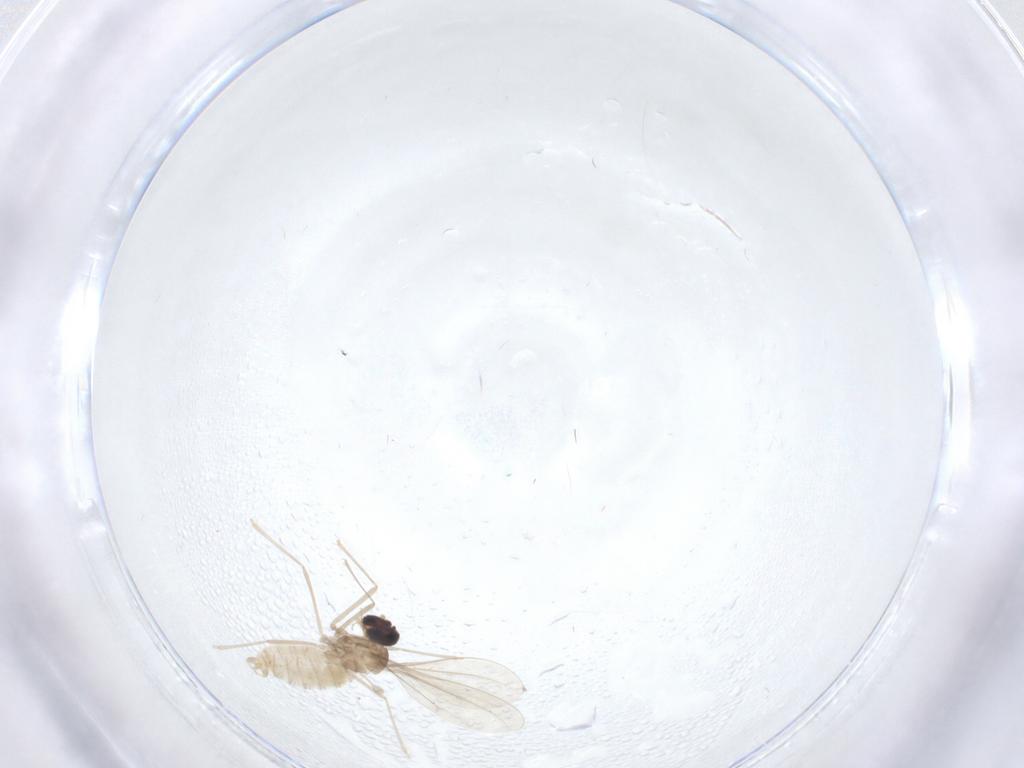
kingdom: Animalia
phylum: Arthropoda
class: Insecta
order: Diptera
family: Cecidomyiidae
